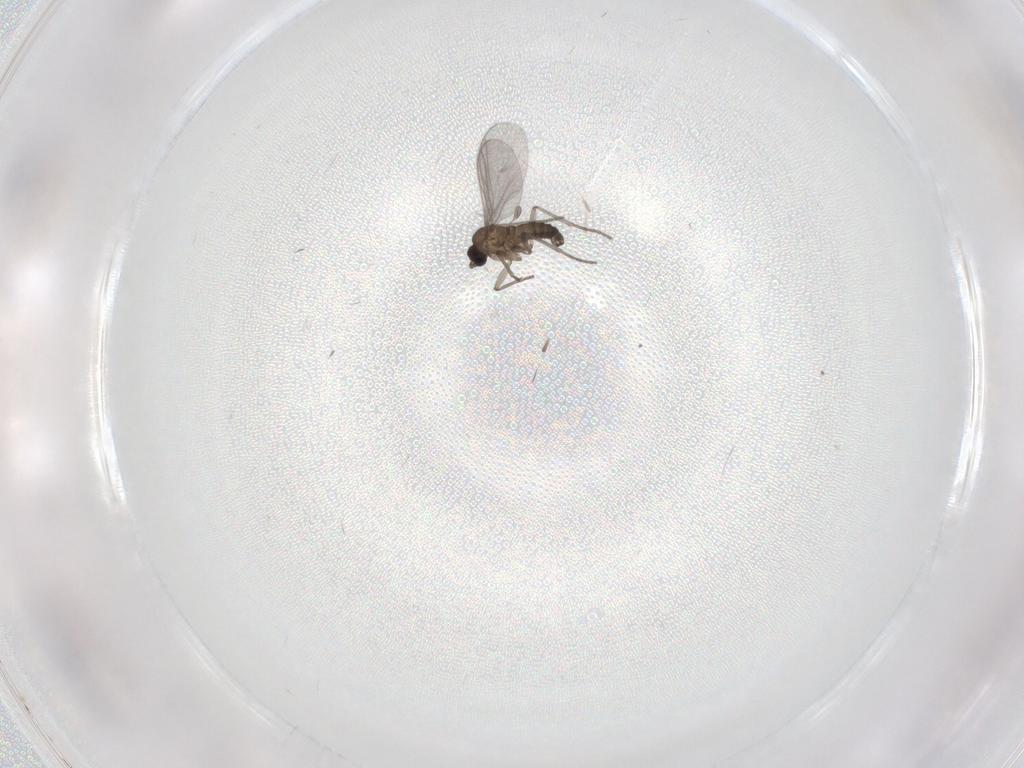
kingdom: Animalia
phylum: Arthropoda
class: Insecta
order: Diptera
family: Sciaridae
